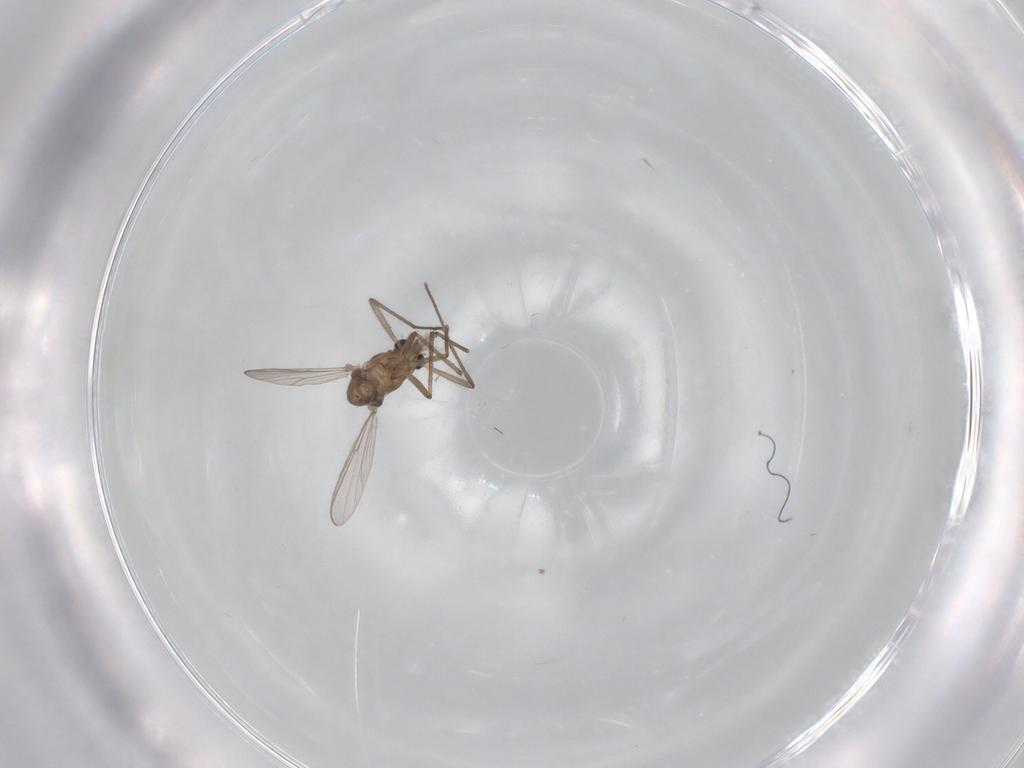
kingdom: Animalia
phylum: Arthropoda
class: Insecta
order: Diptera
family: Chironomidae
